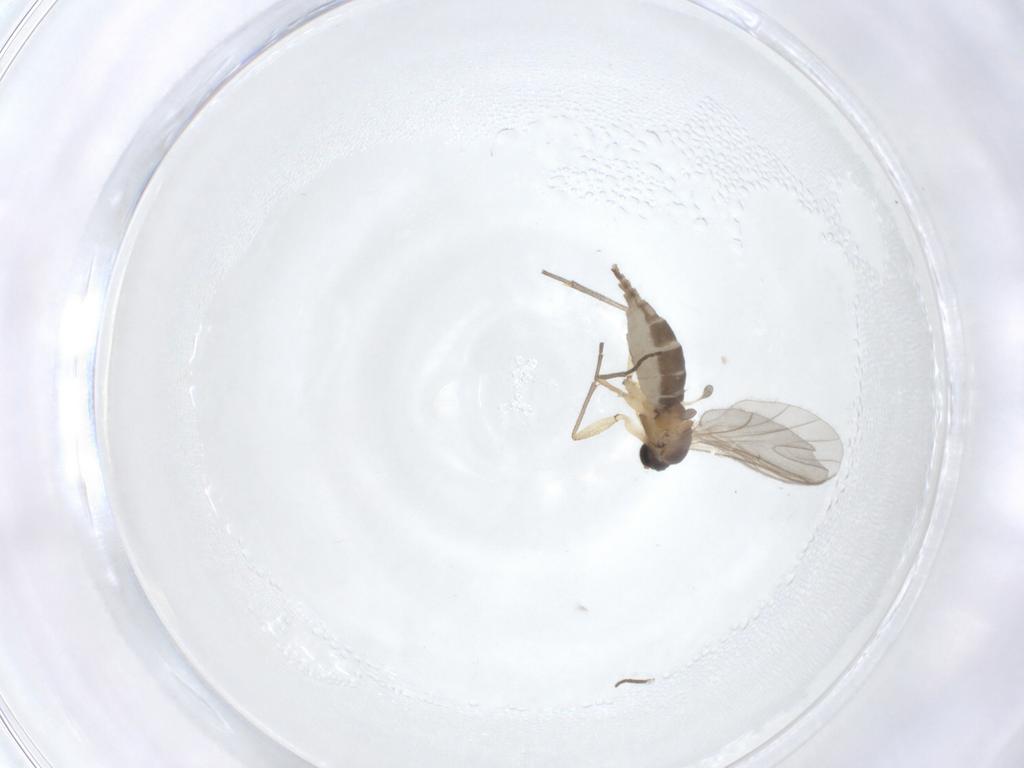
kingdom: Animalia
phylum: Arthropoda
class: Insecta
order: Diptera
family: Sciaridae
